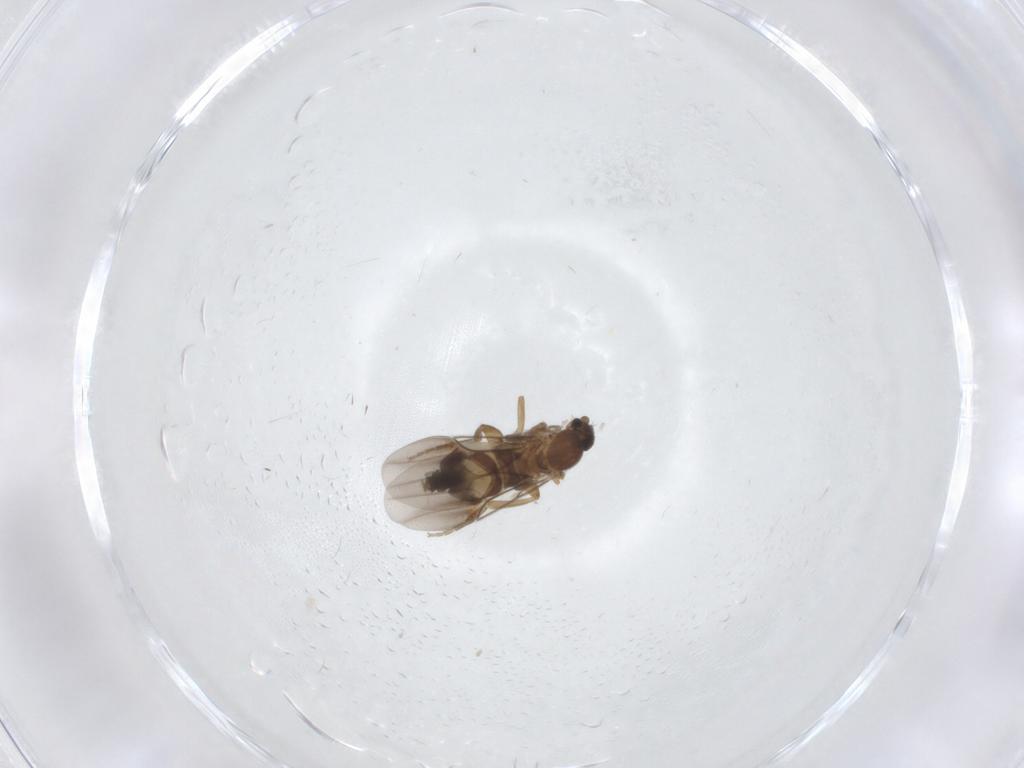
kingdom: Animalia
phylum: Arthropoda
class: Insecta
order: Diptera
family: Phoridae
